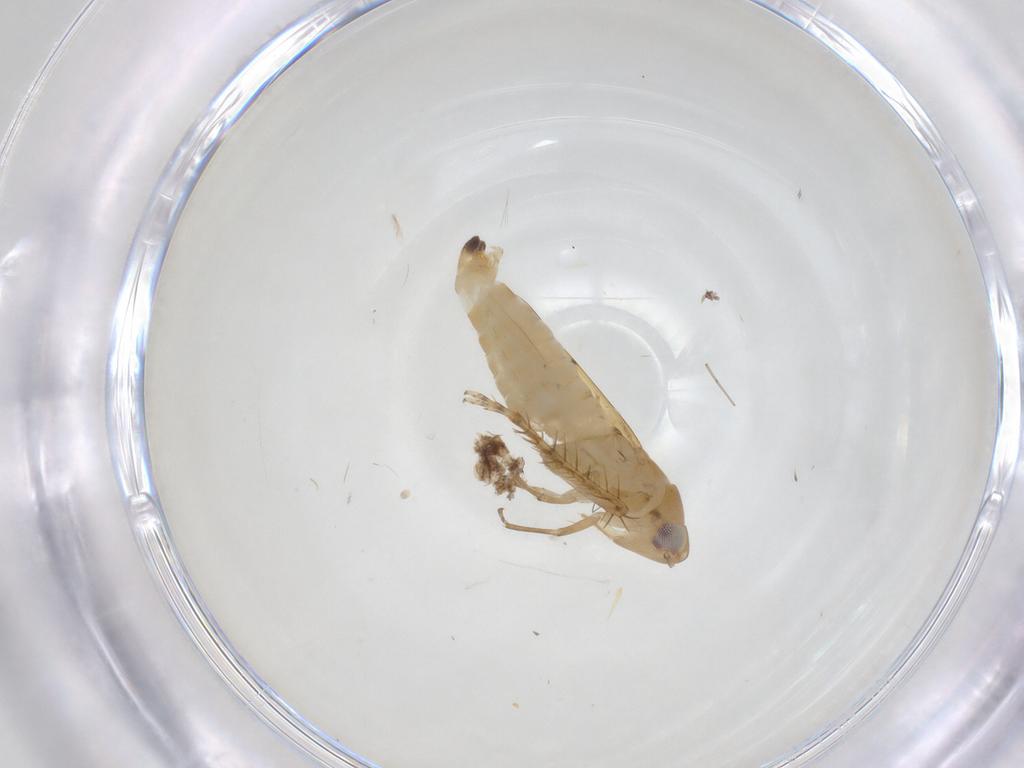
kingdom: Animalia
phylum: Arthropoda
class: Insecta
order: Hemiptera
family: Cicadellidae
